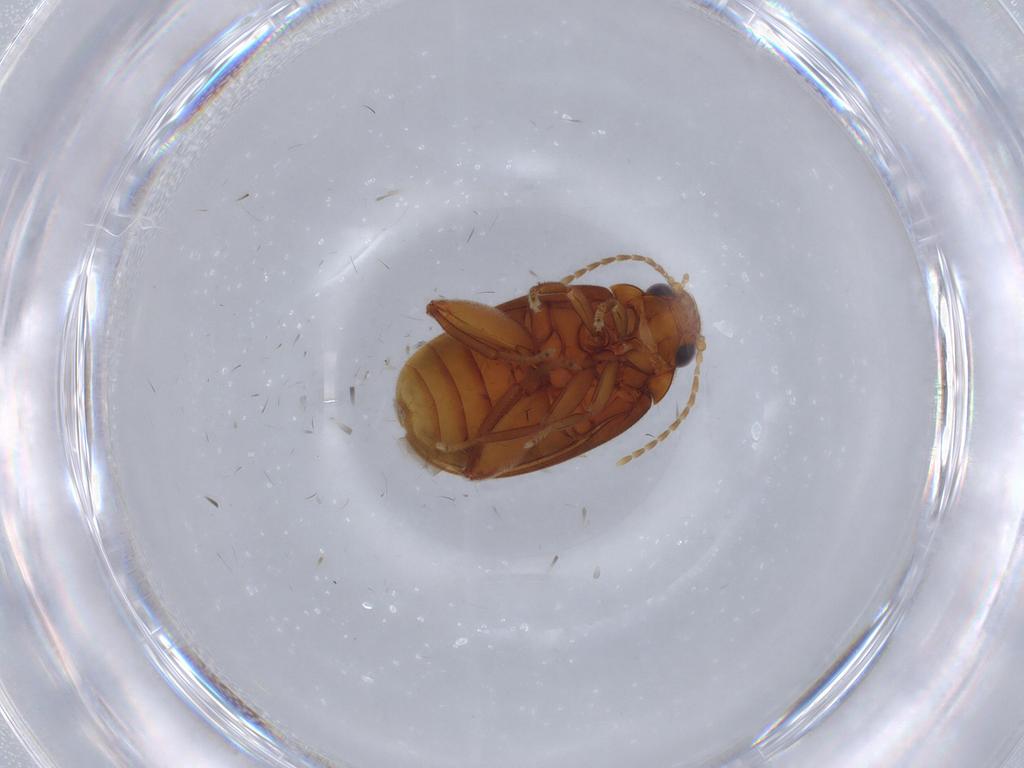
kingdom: Animalia
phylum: Arthropoda
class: Insecta
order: Coleoptera
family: Scirtidae
